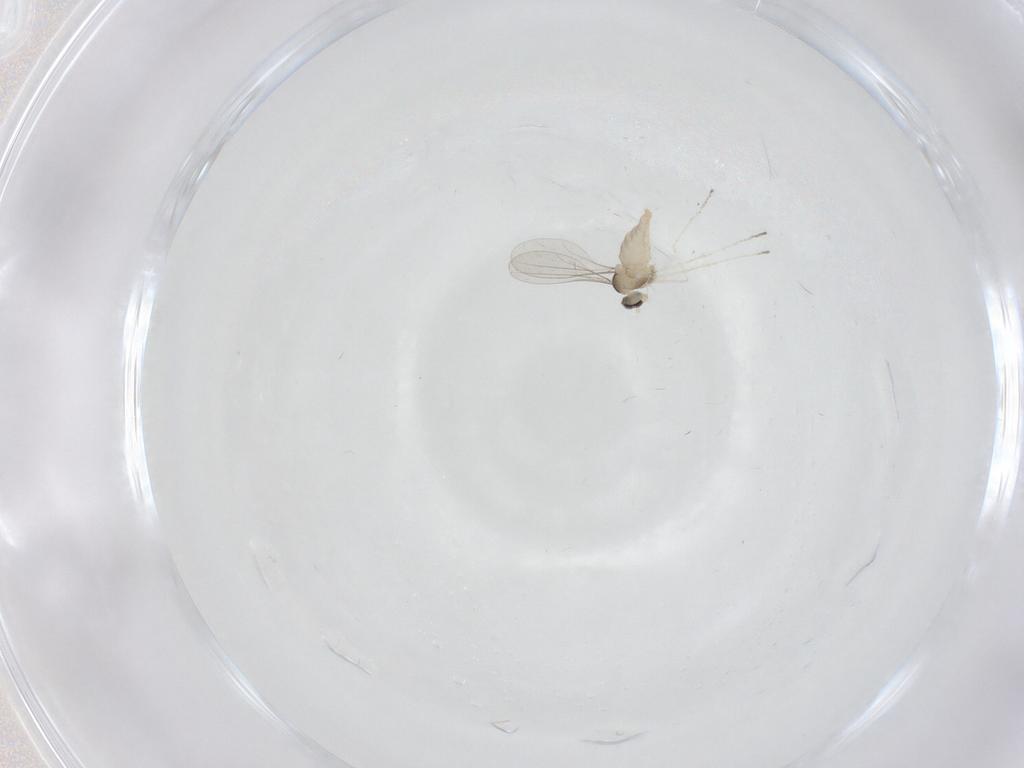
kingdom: Animalia
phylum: Arthropoda
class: Insecta
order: Diptera
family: Cecidomyiidae
